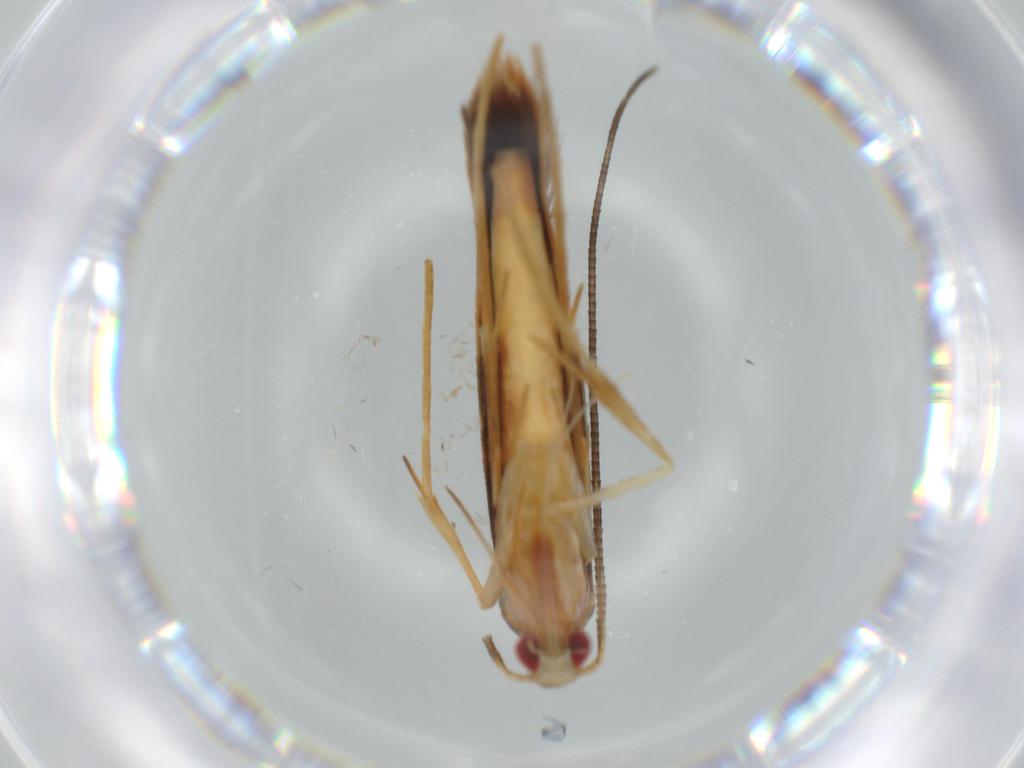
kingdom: Animalia
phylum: Arthropoda
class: Insecta
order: Lepidoptera
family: Gracillariidae
